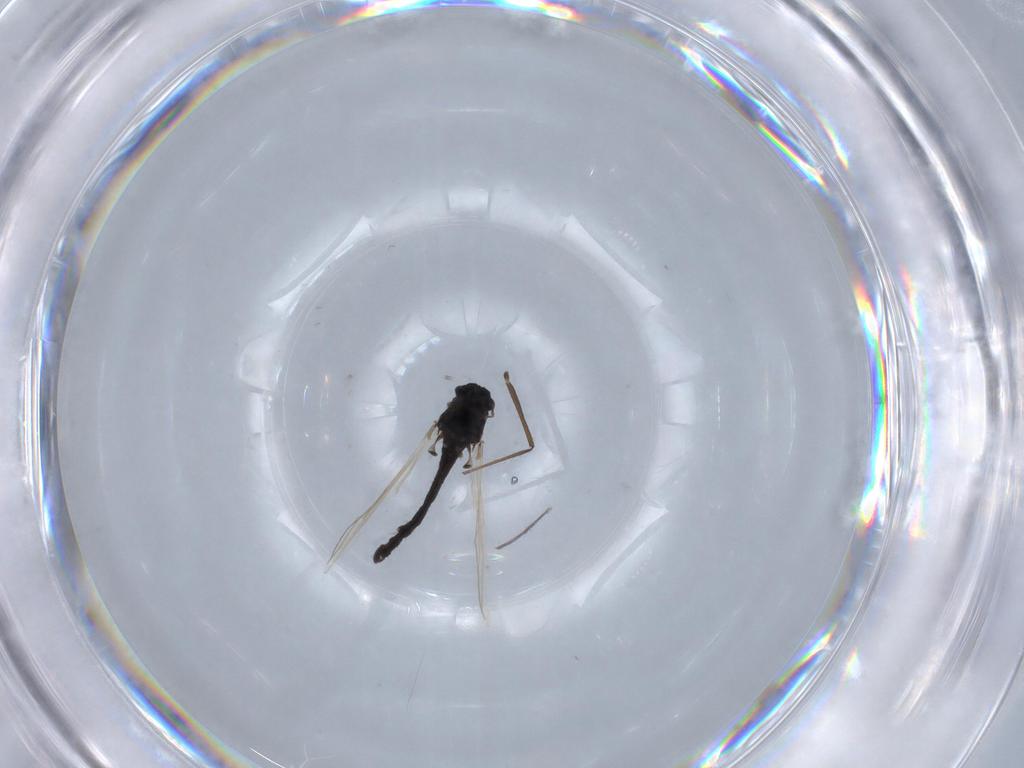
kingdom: Animalia
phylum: Arthropoda
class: Insecta
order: Diptera
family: Chironomidae
